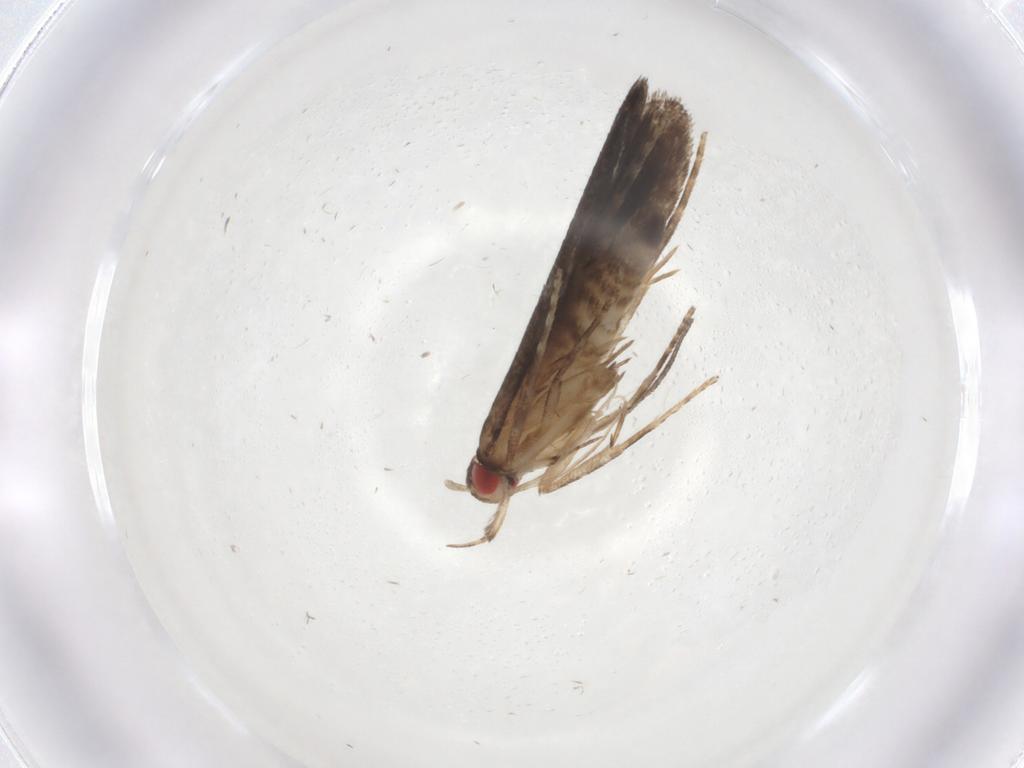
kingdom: Animalia
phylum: Arthropoda
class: Insecta
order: Lepidoptera
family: Gelechiidae
